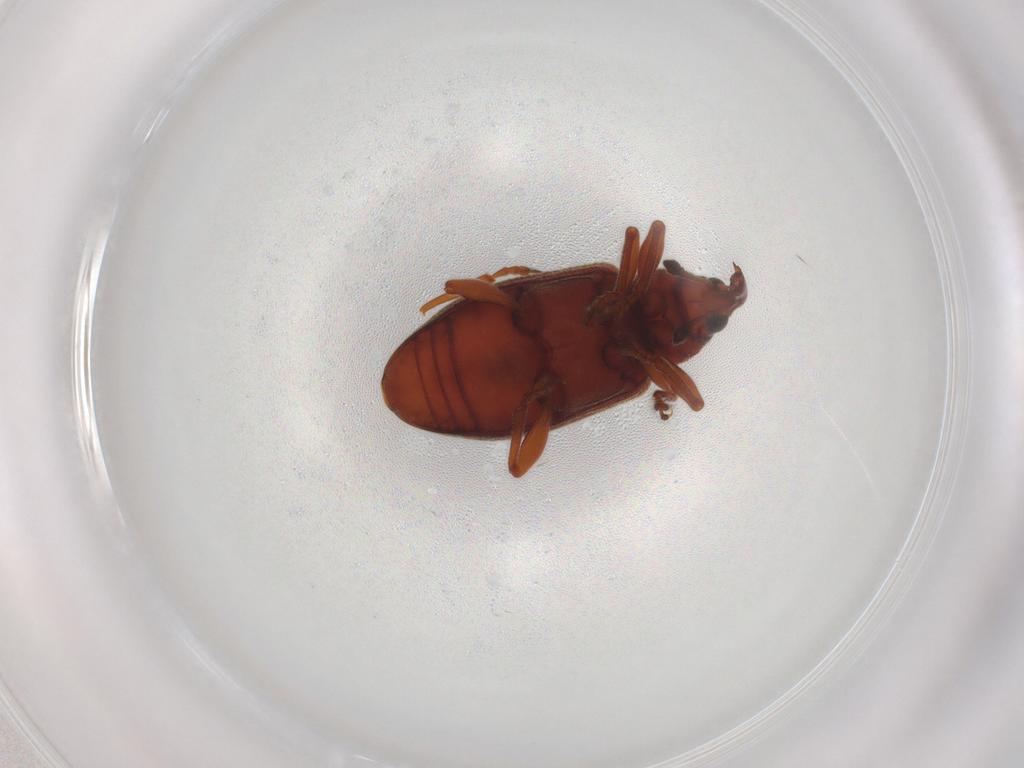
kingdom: Animalia
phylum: Arthropoda
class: Insecta
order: Coleoptera
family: Curculionidae
